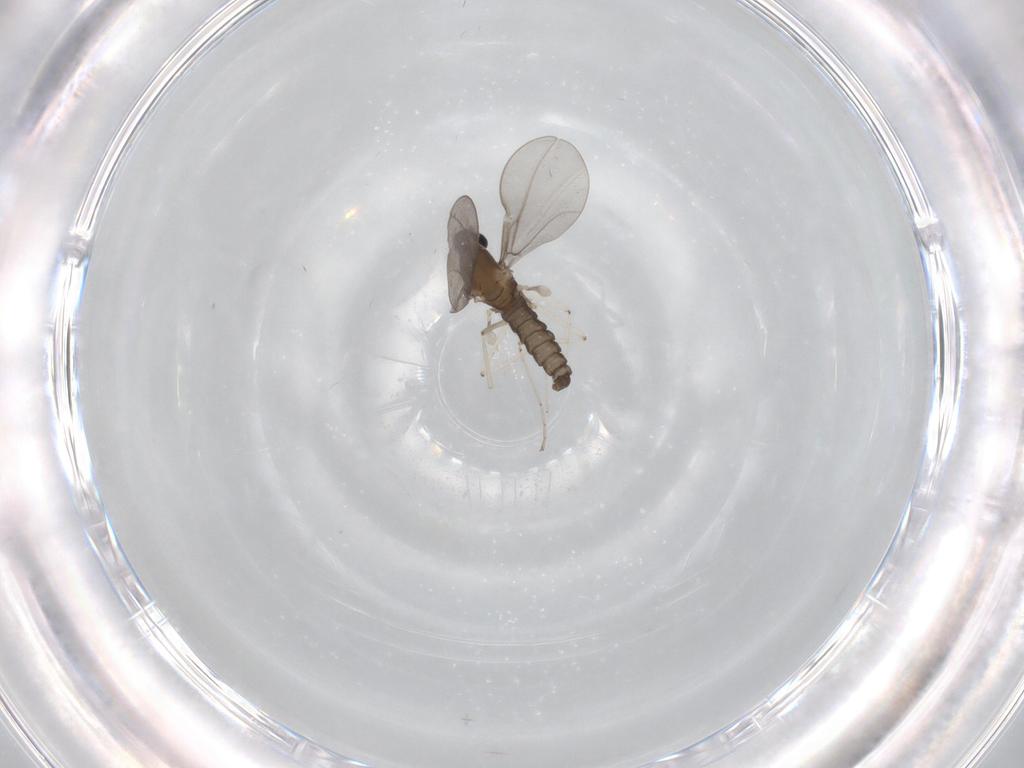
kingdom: Animalia
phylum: Arthropoda
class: Insecta
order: Diptera
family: Cecidomyiidae
